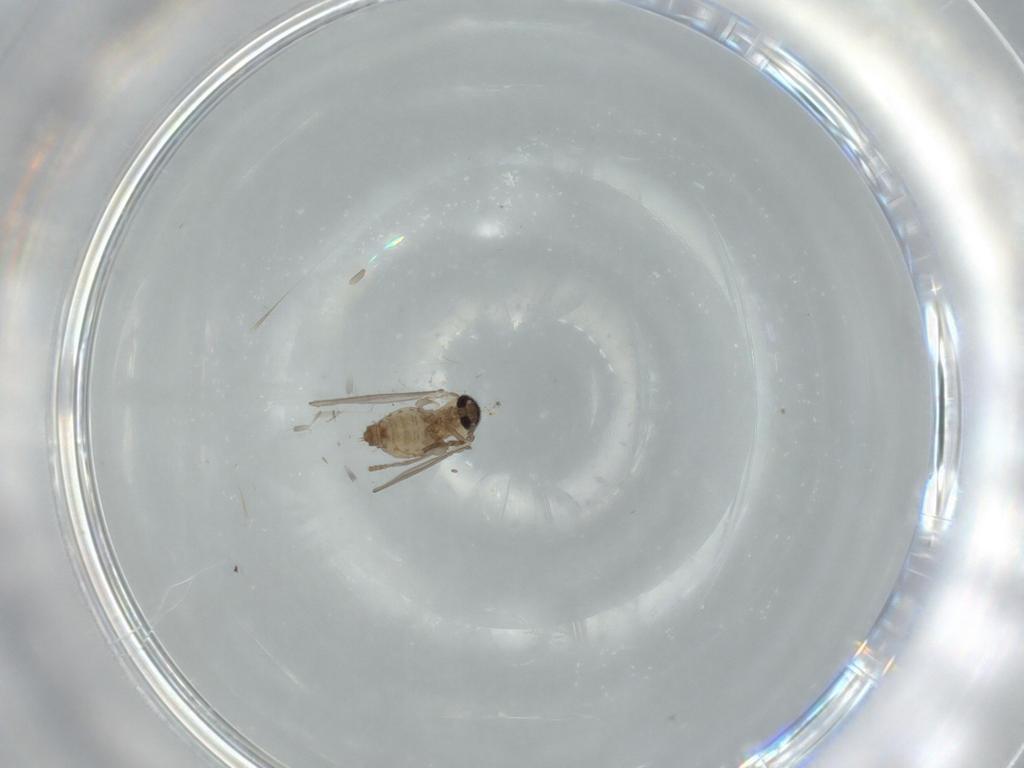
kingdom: Animalia
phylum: Arthropoda
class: Insecta
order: Diptera
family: Psychodidae
